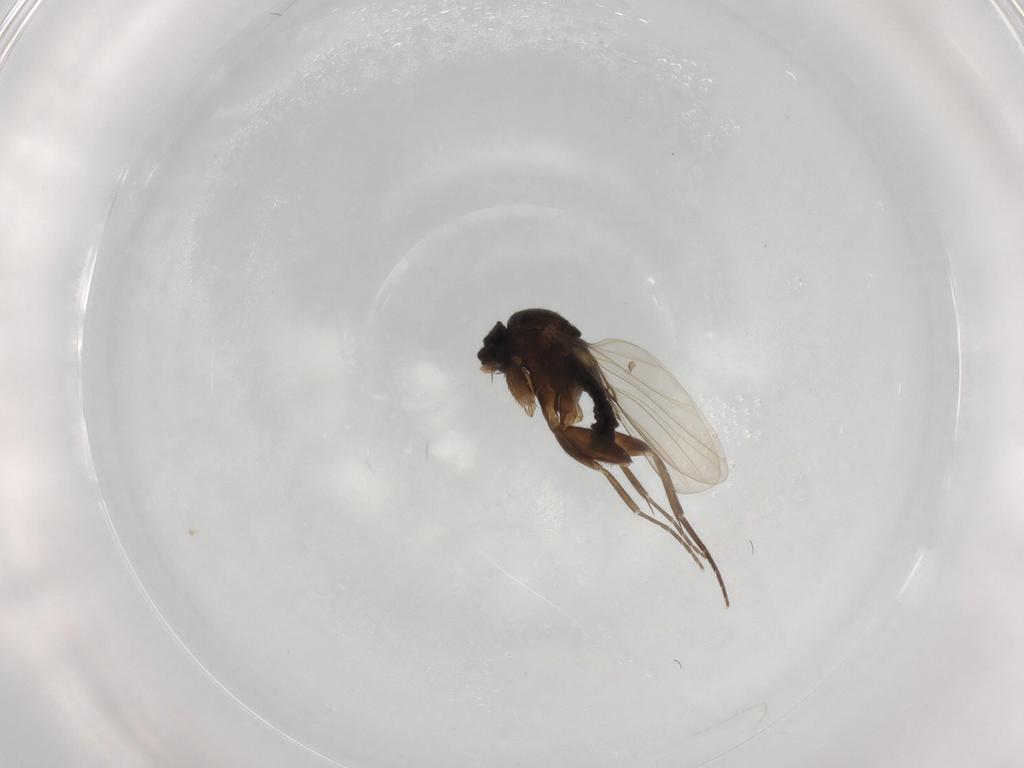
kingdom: Animalia
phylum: Arthropoda
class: Insecta
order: Diptera
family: Phoridae
